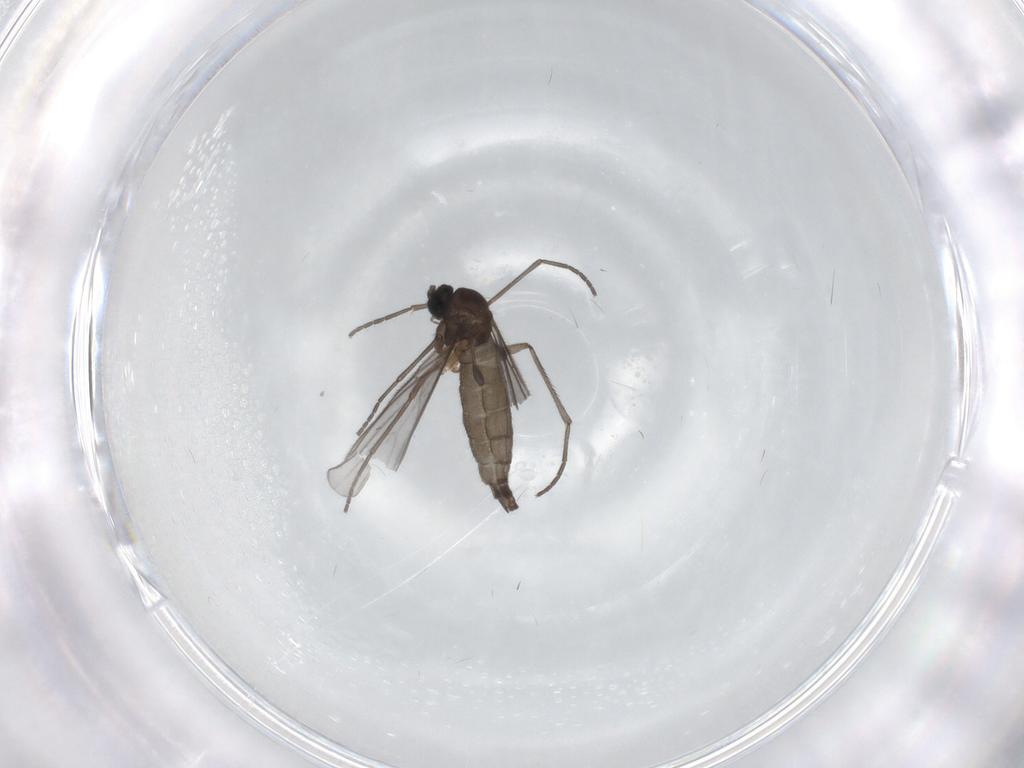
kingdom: Animalia
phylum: Arthropoda
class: Insecta
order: Diptera
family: Sciaridae
